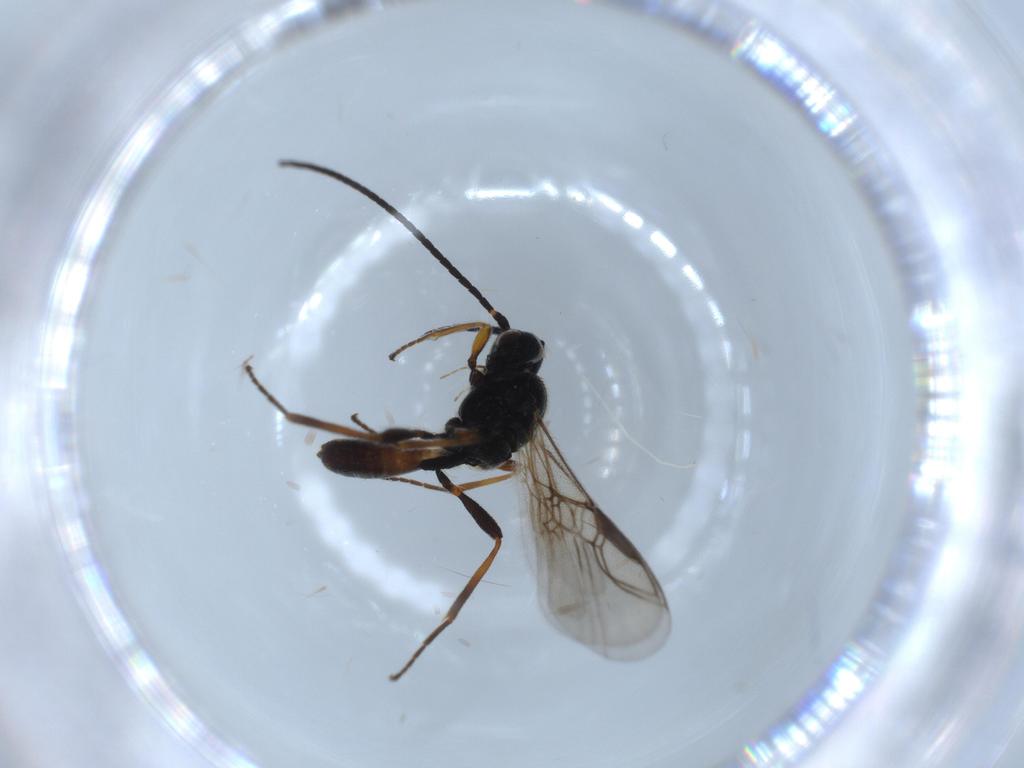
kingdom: Animalia
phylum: Arthropoda
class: Insecta
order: Hymenoptera
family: Braconidae
